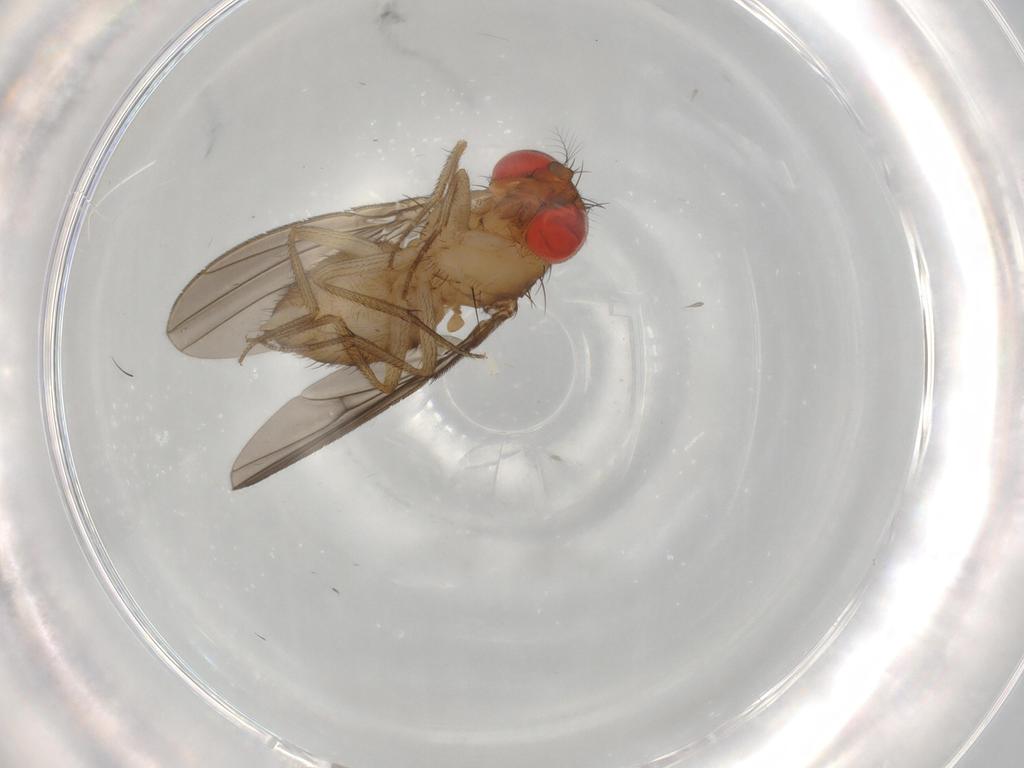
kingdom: Animalia
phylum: Arthropoda
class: Insecta
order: Diptera
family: Drosophilidae
